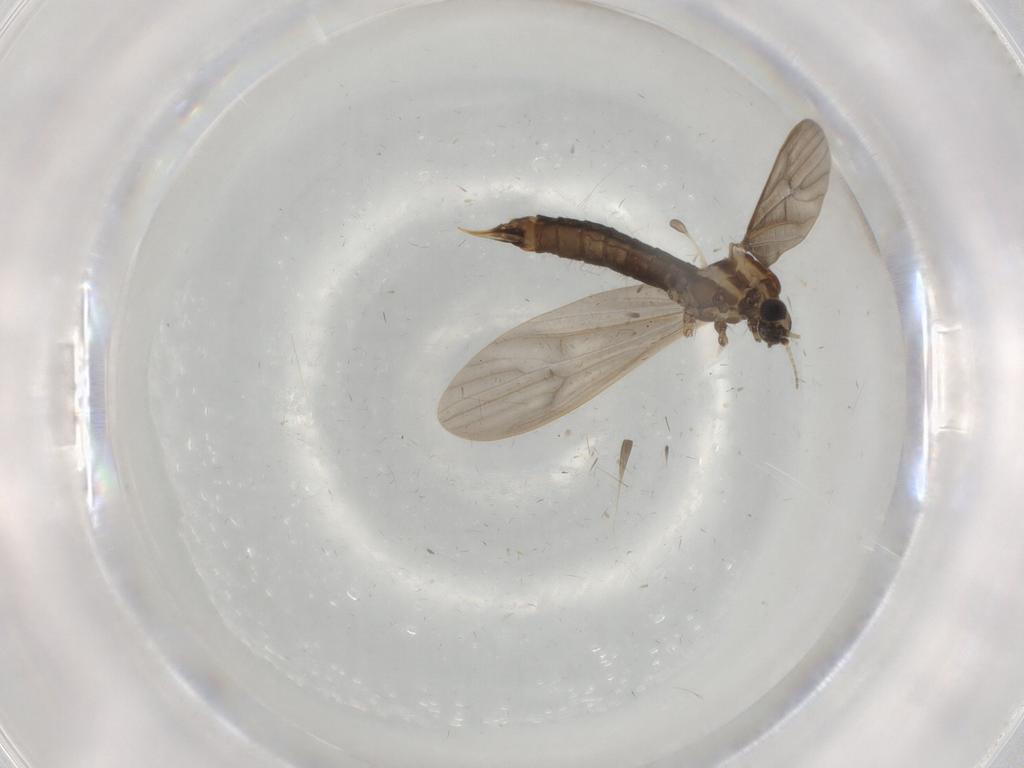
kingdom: Animalia
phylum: Arthropoda
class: Insecta
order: Diptera
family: Limoniidae
